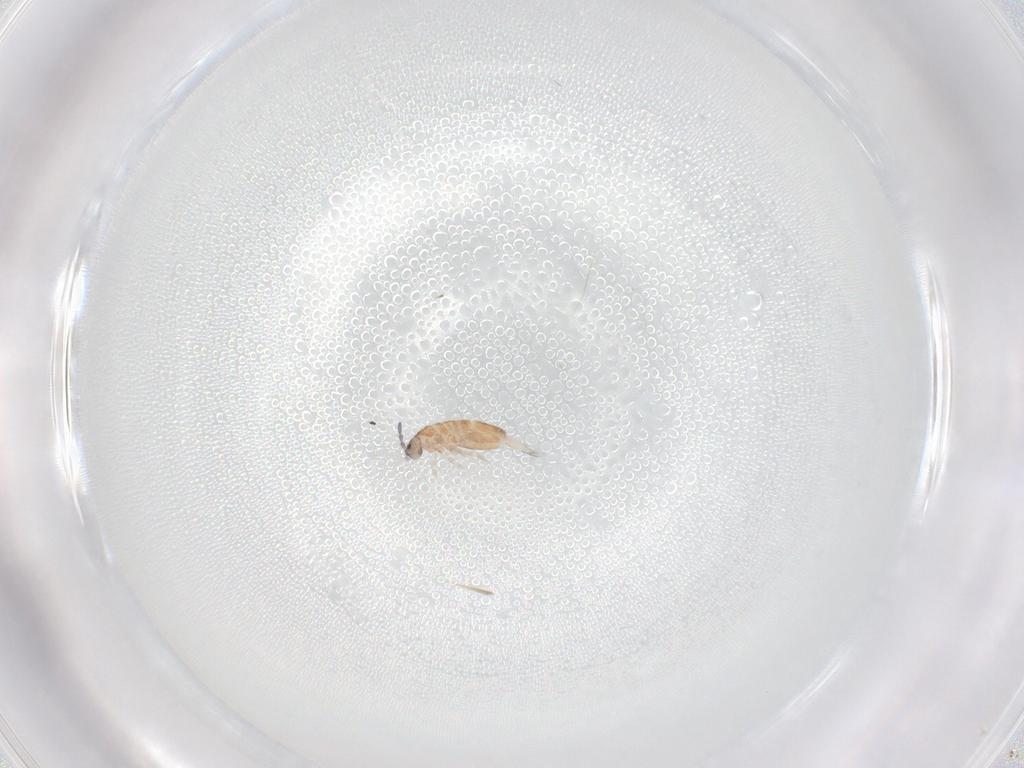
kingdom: Animalia
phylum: Arthropoda
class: Collembola
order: Entomobryomorpha
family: Entomobryidae
